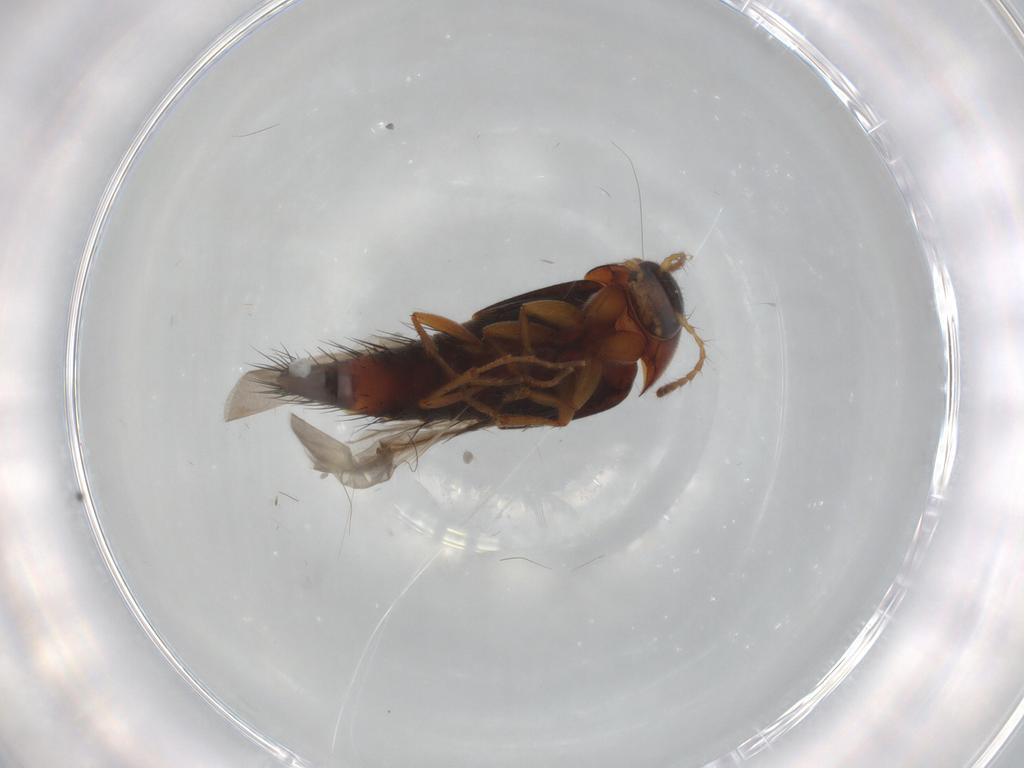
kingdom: Animalia
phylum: Arthropoda
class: Insecta
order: Coleoptera
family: Staphylinidae
